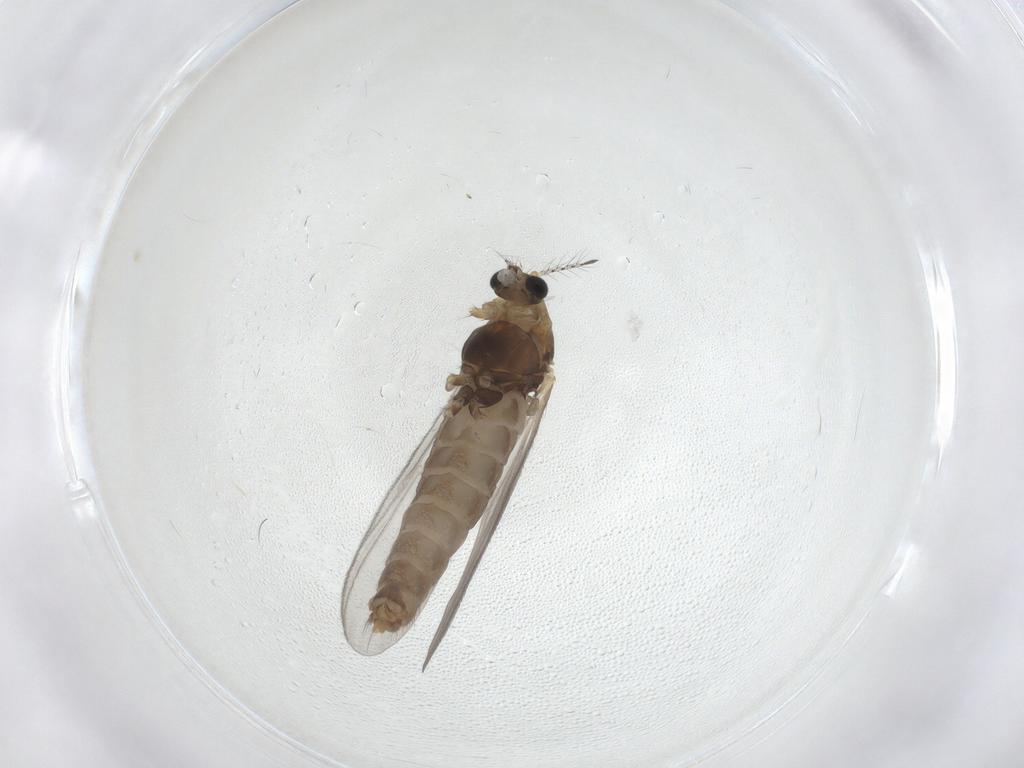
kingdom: Animalia
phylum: Arthropoda
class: Insecta
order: Diptera
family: Chironomidae
